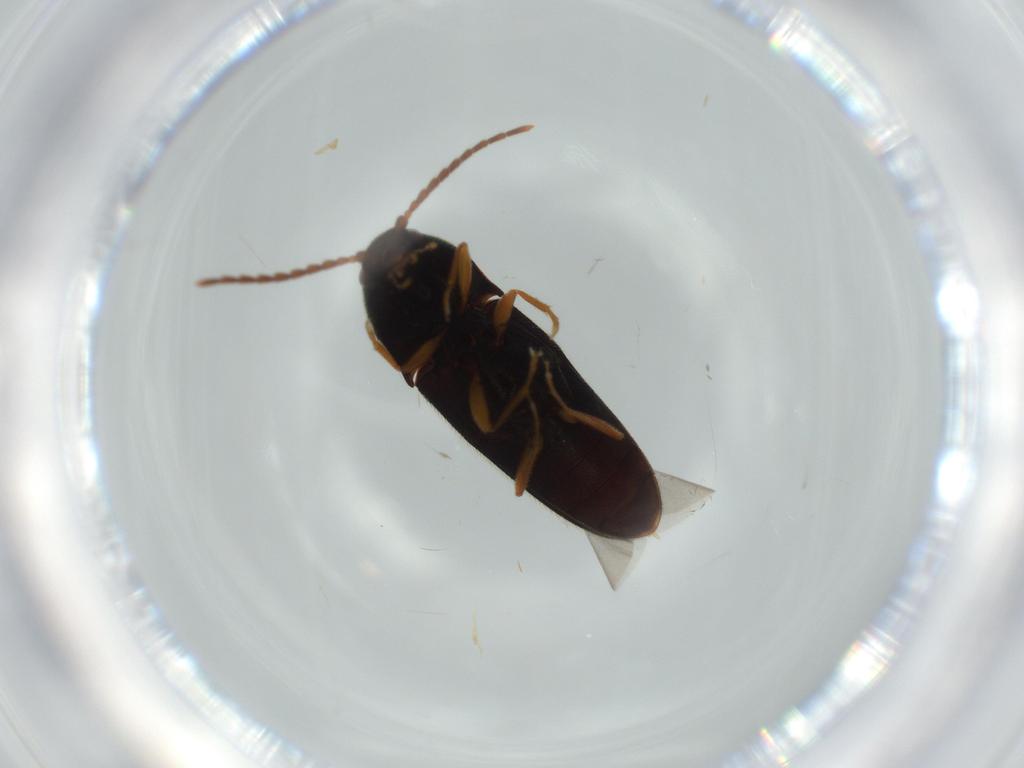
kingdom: Animalia
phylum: Arthropoda
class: Insecta
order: Coleoptera
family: Elateridae
